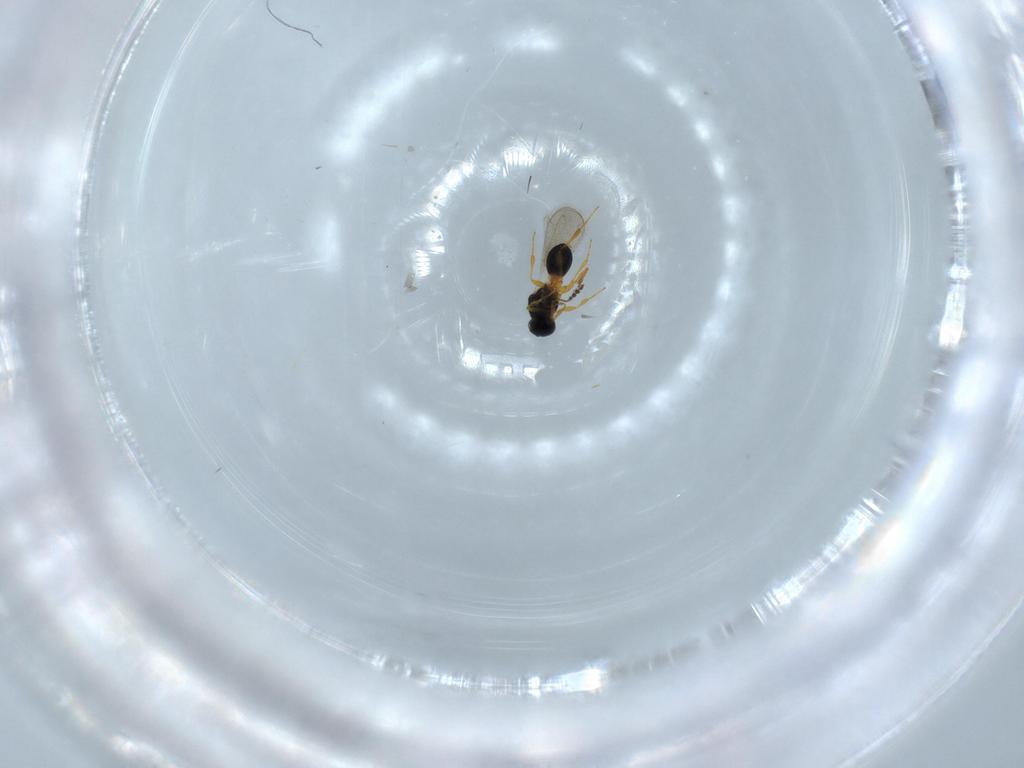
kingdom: Animalia
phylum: Arthropoda
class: Insecta
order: Hymenoptera
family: Platygastridae
